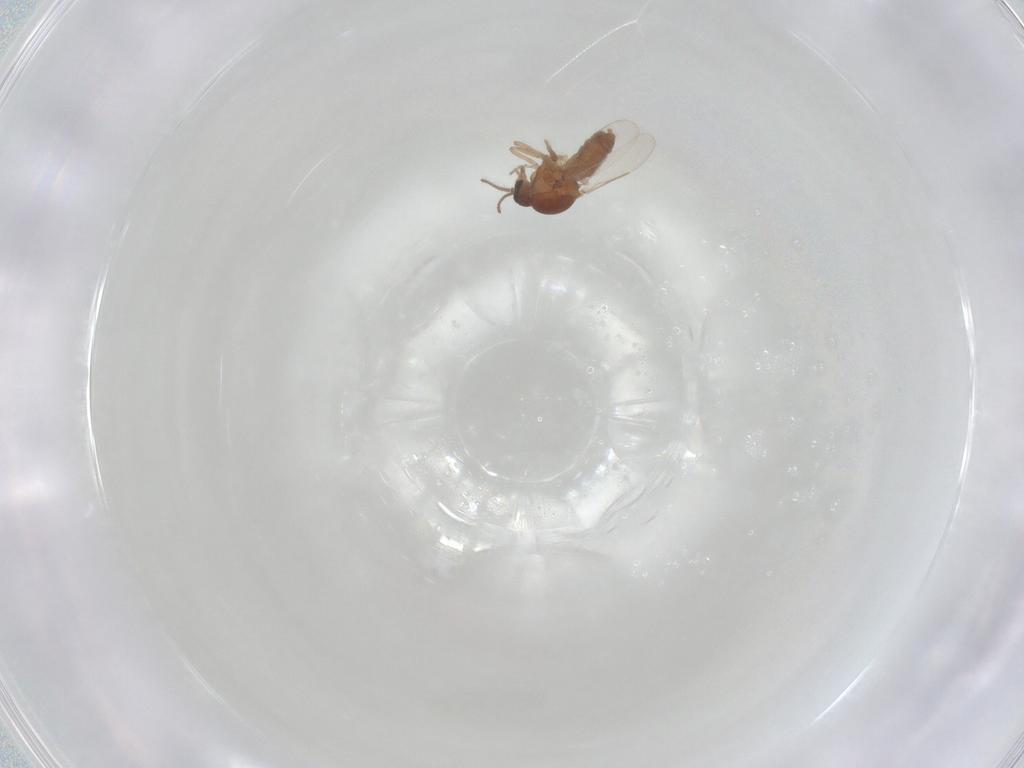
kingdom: Animalia
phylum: Arthropoda
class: Insecta
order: Diptera
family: Ceratopogonidae
